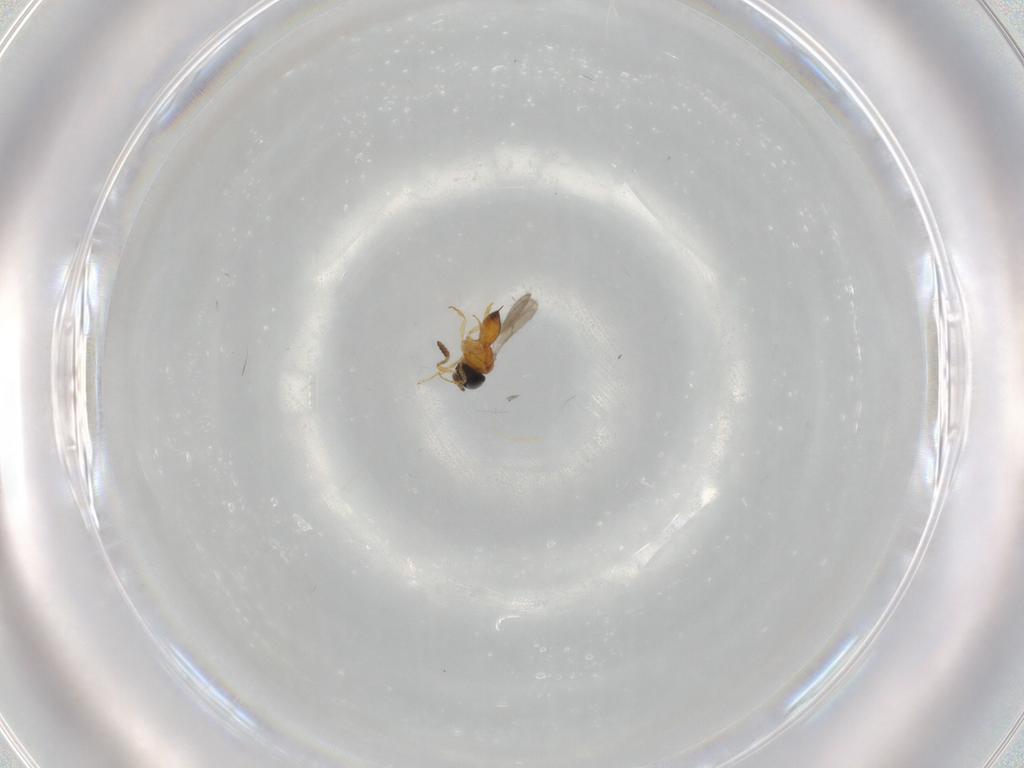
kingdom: Animalia
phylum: Arthropoda
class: Insecta
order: Hymenoptera
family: Scelionidae
